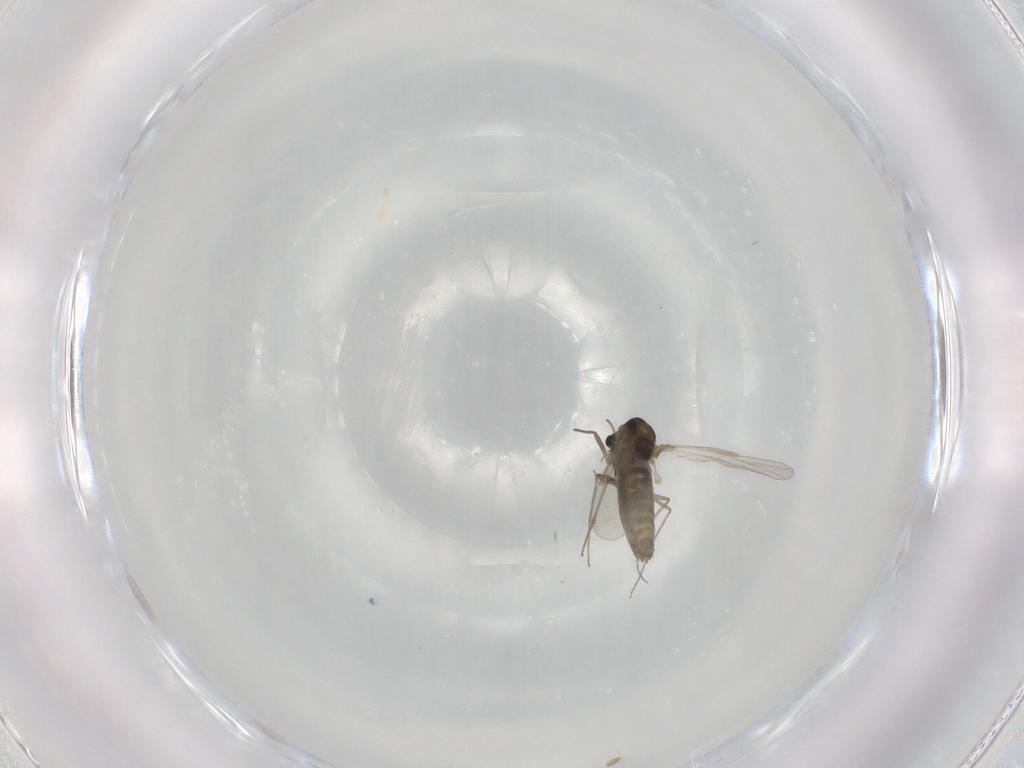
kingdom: Animalia
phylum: Arthropoda
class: Insecta
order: Diptera
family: Chironomidae
